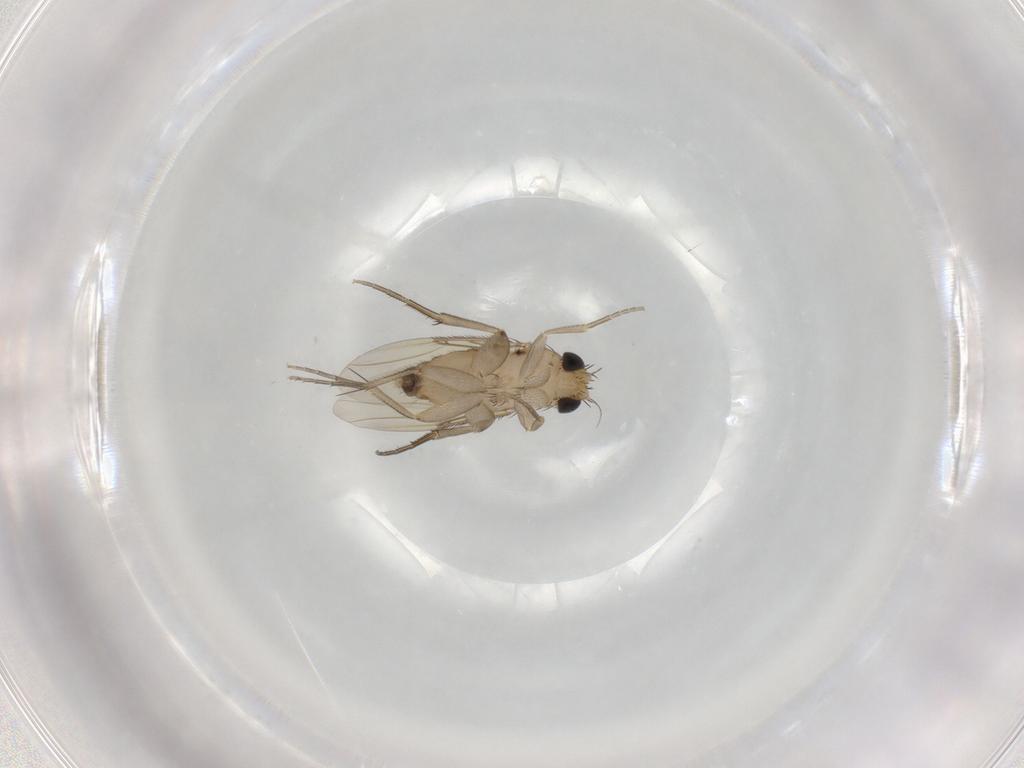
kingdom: Animalia
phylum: Arthropoda
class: Insecta
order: Diptera
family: Phoridae
